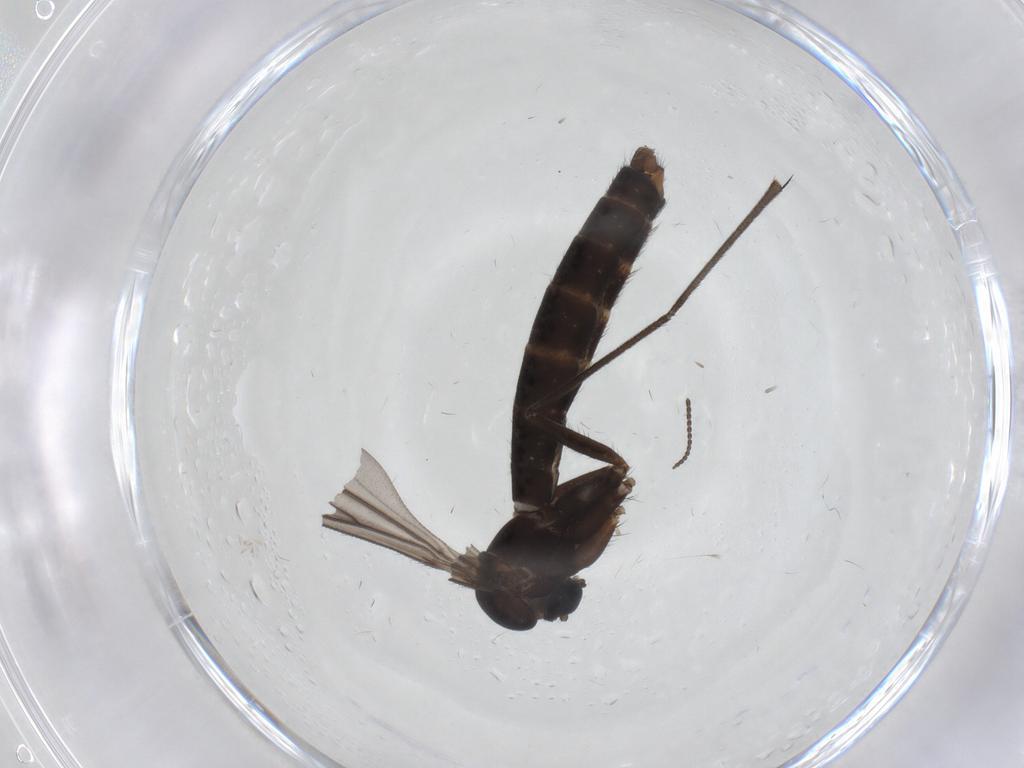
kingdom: Animalia
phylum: Arthropoda
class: Insecta
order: Diptera
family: Keroplatidae
